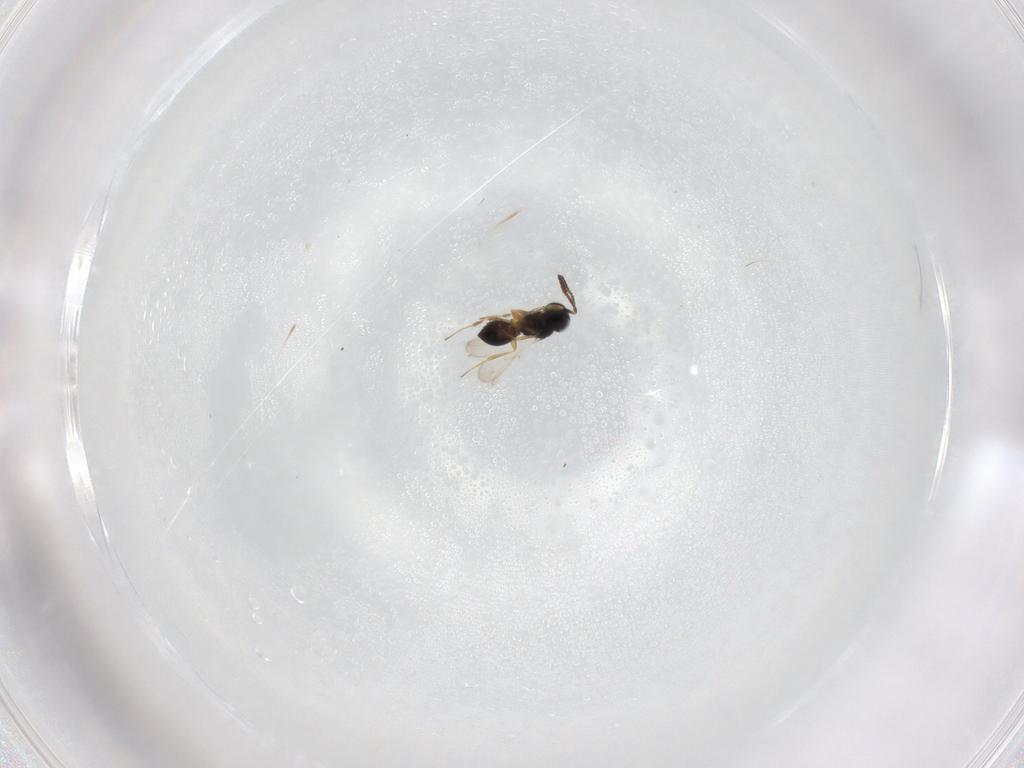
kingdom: Animalia
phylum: Arthropoda
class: Insecta
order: Hymenoptera
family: Scelionidae
